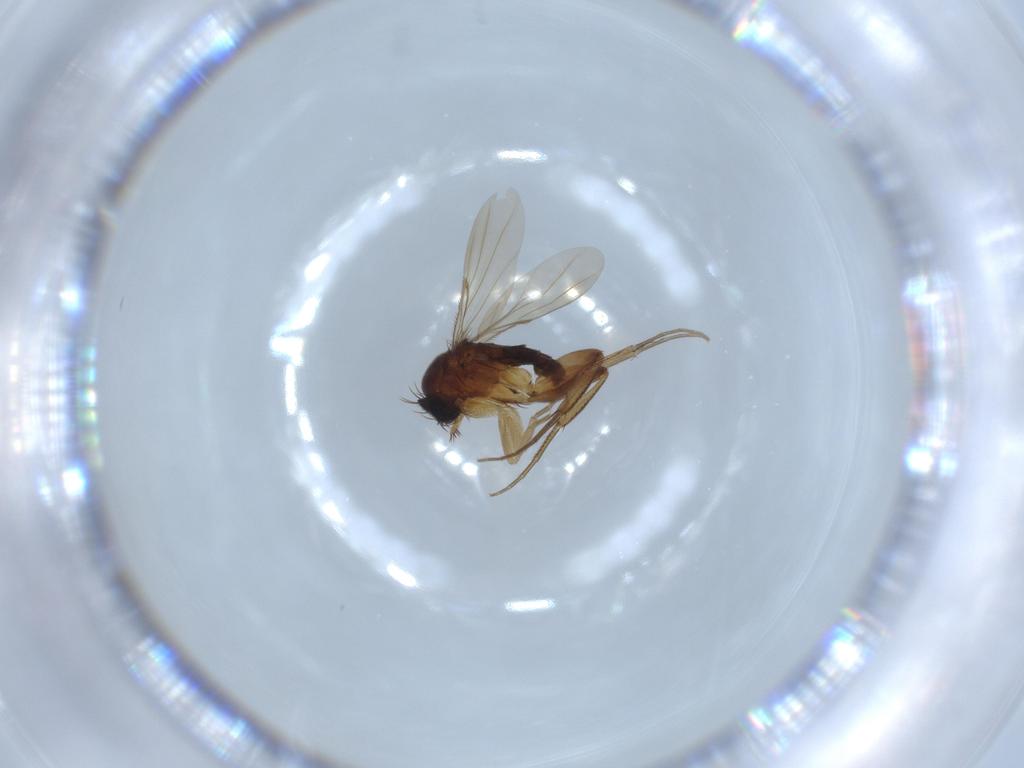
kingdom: Animalia
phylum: Arthropoda
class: Insecta
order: Diptera
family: Phoridae
